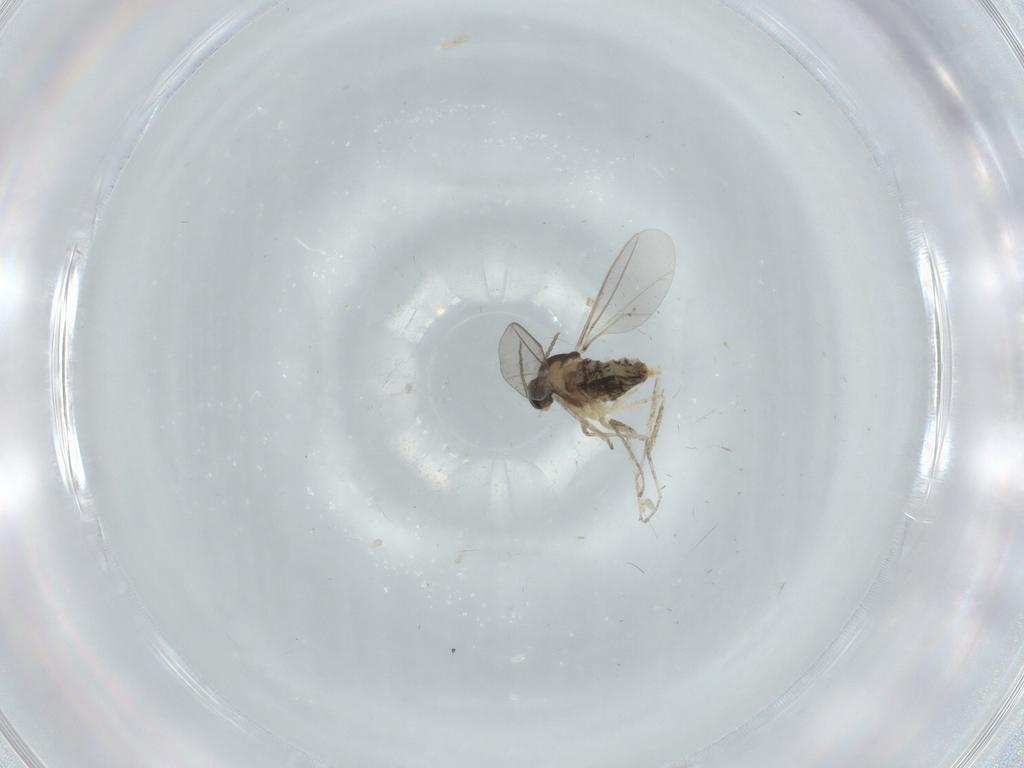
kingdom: Animalia
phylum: Arthropoda
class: Insecta
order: Diptera
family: Cecidomyiidae
